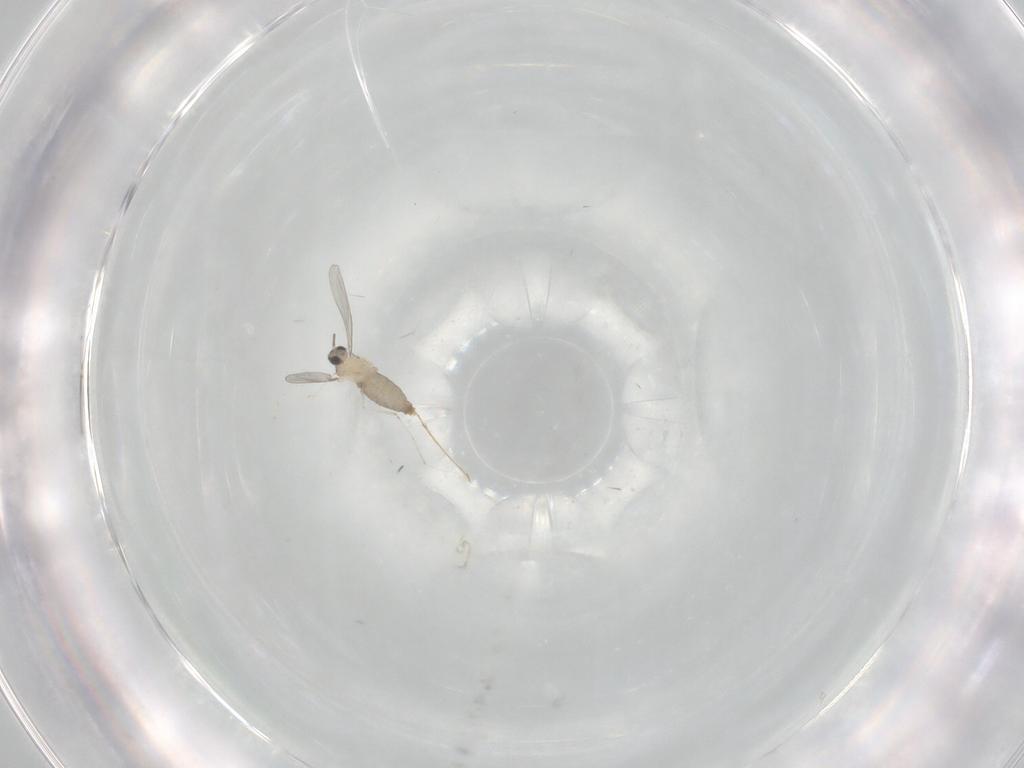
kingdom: Animalia
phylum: Arthropoda
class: Insecta
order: Diptera
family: Cecidomyiidae
